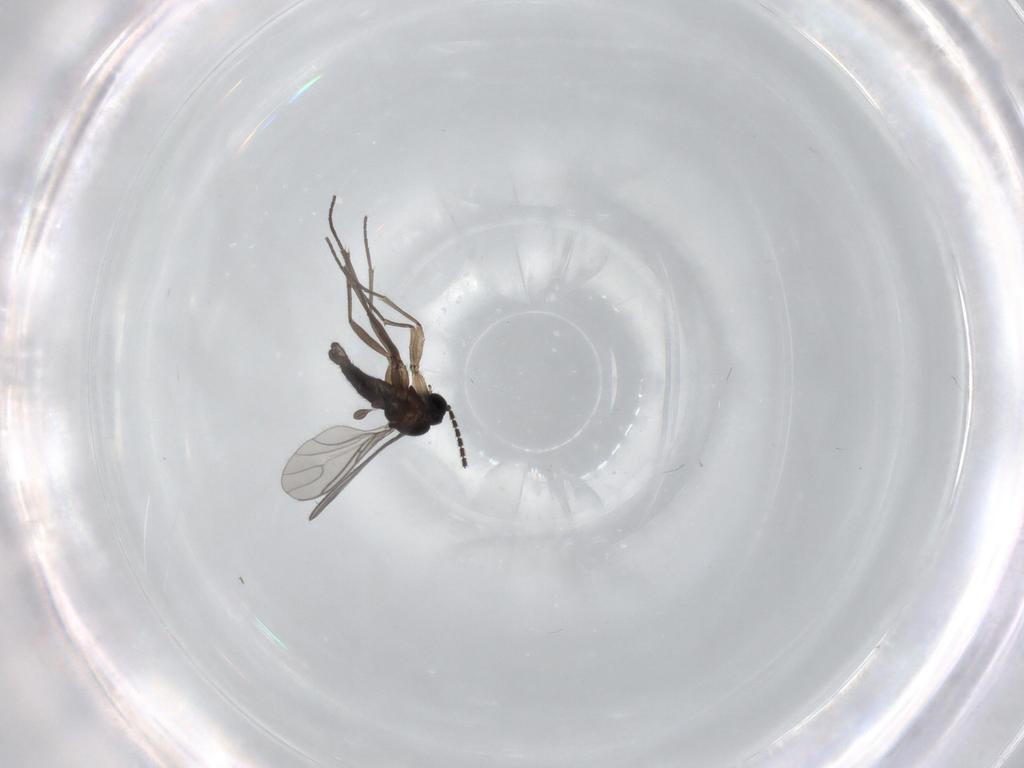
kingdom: Animalia
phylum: Arthropoda
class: Insecta
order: Diptera
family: Sciaridae
